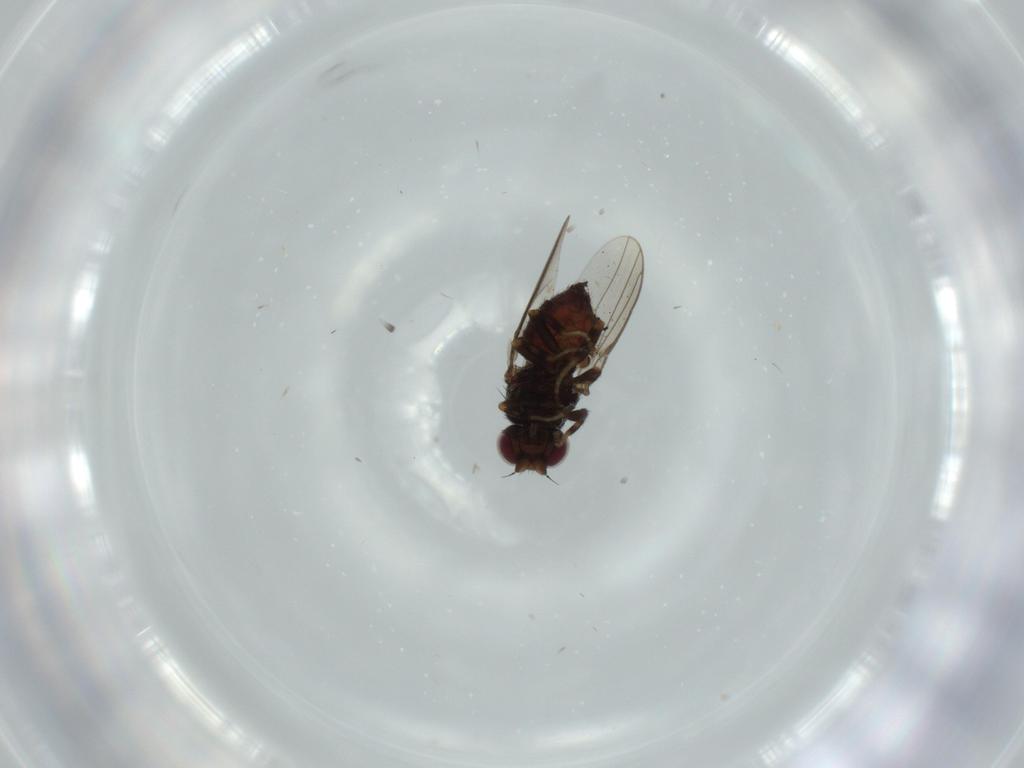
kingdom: Animalia
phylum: Arthropoda
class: Insecta
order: Diptera
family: Chloropidae
